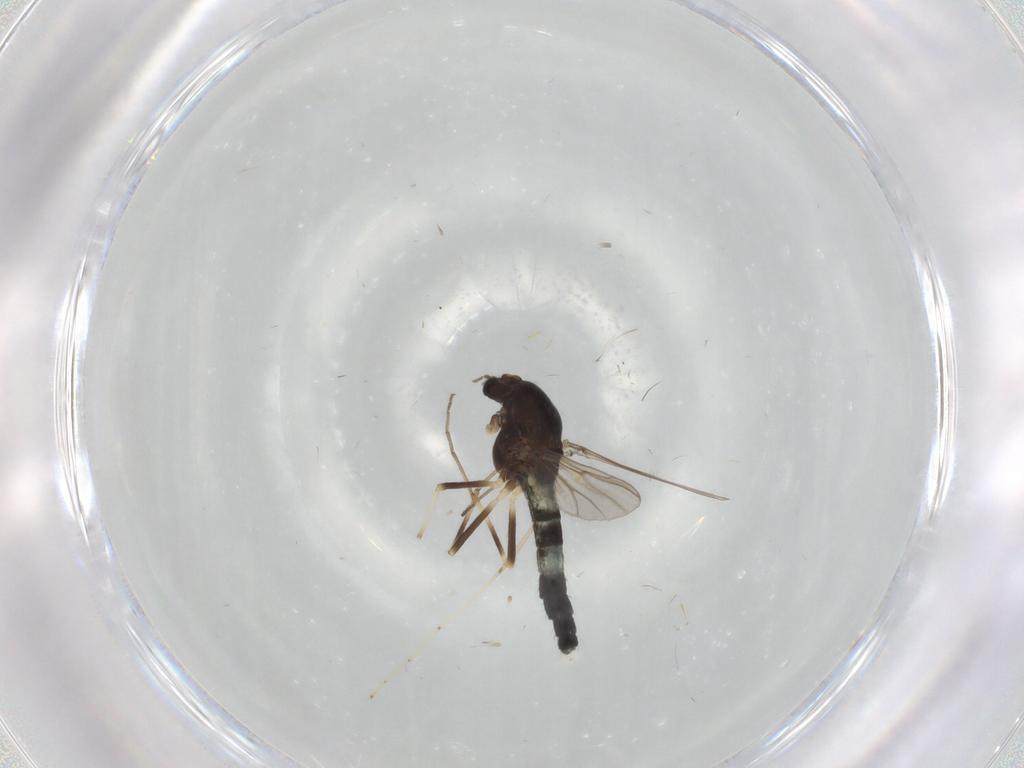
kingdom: Animalia
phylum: Arthropoda
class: Insecta
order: Diptera
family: Chironomidae
